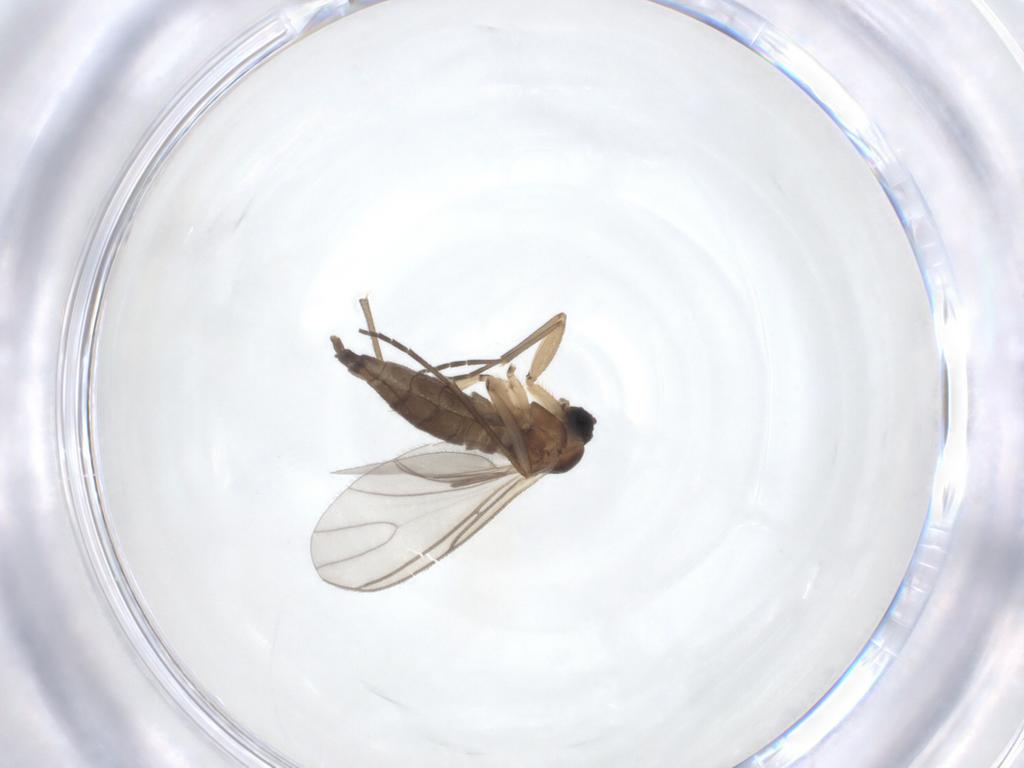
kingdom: Animalia
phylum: Arthropoda
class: Insecta
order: Diptera
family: Sciaridae
